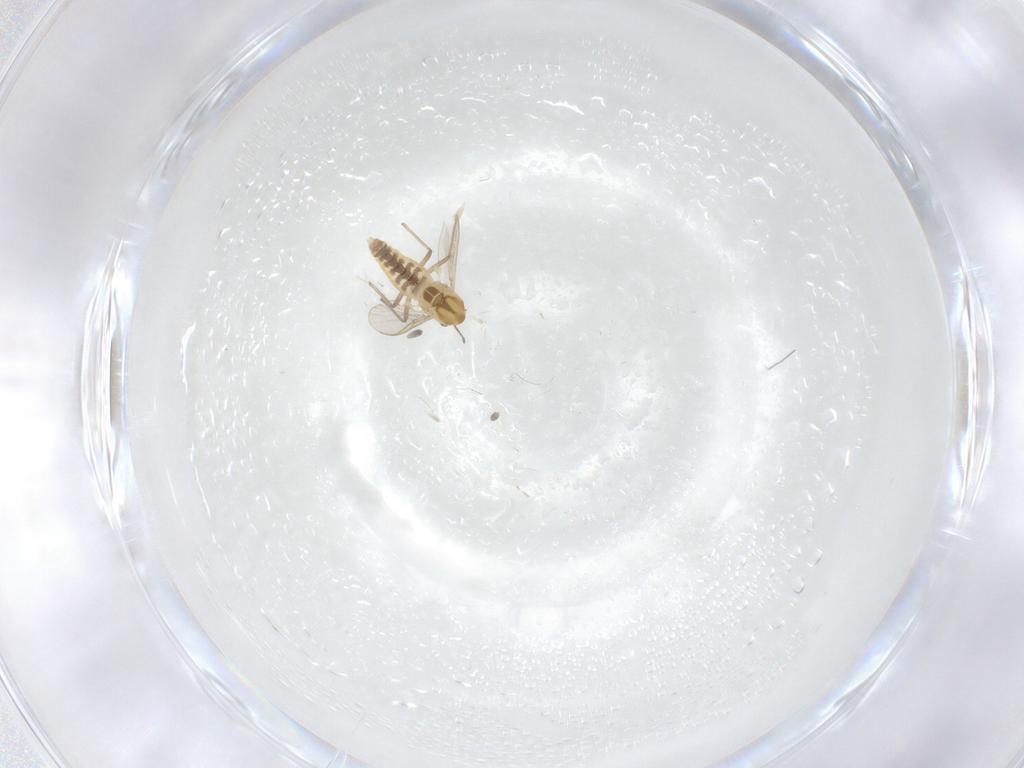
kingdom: Animalia
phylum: Arthropoda
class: Insecta
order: Diptera
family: Chironomidae
